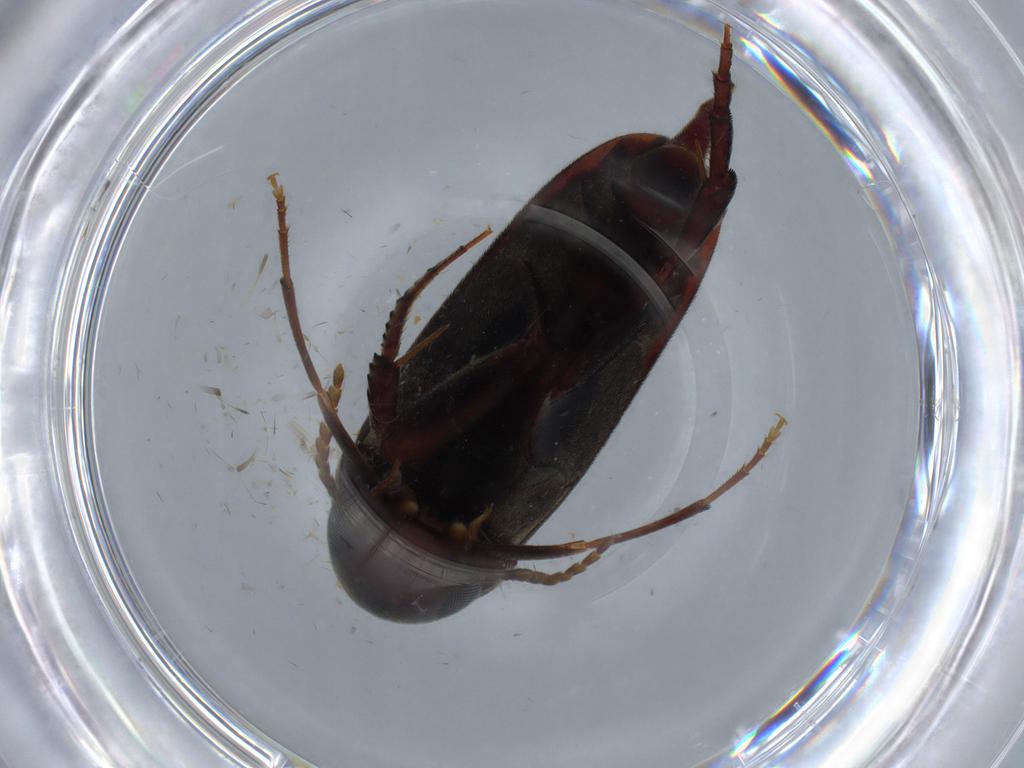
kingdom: Animalia
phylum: Arthropoda
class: Insecta
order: Coleoptera
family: Mordellidae
